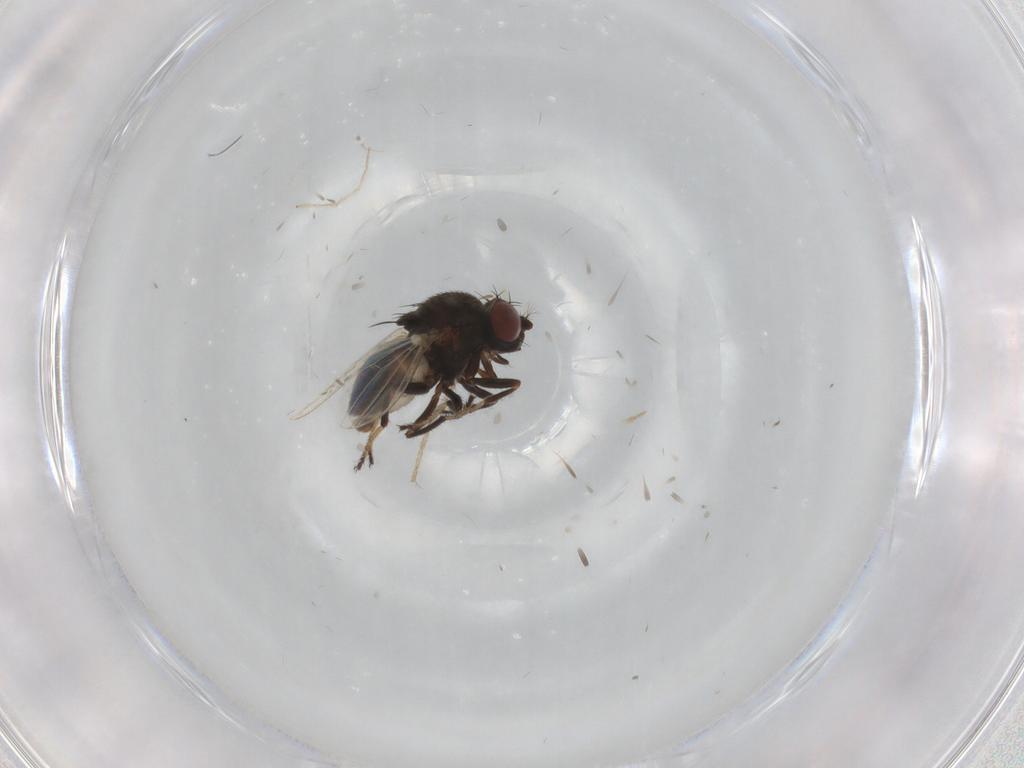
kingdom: Animalia
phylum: Arthropoda
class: Insecta
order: Diptera
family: Ephydridae
